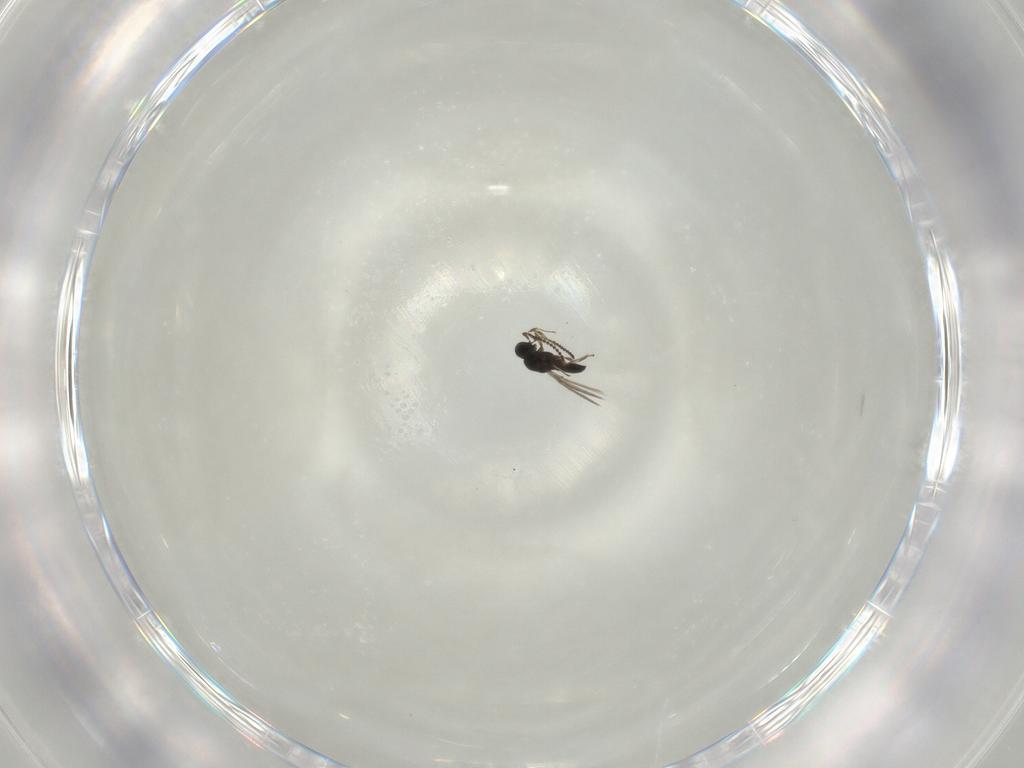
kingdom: Animalia
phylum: Arthropoda
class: Insecta
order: Hymenoptera
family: Scelionidae
